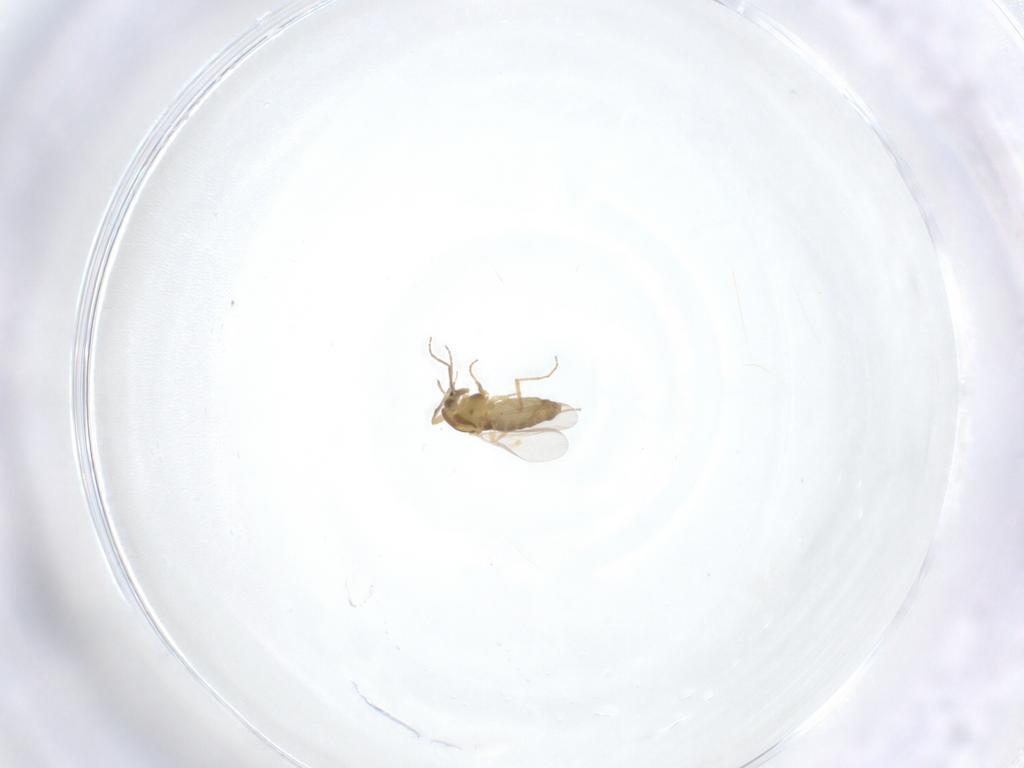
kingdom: Animalia
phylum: Arthropoda
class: Insecta
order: Diptera
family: Chironomidae
